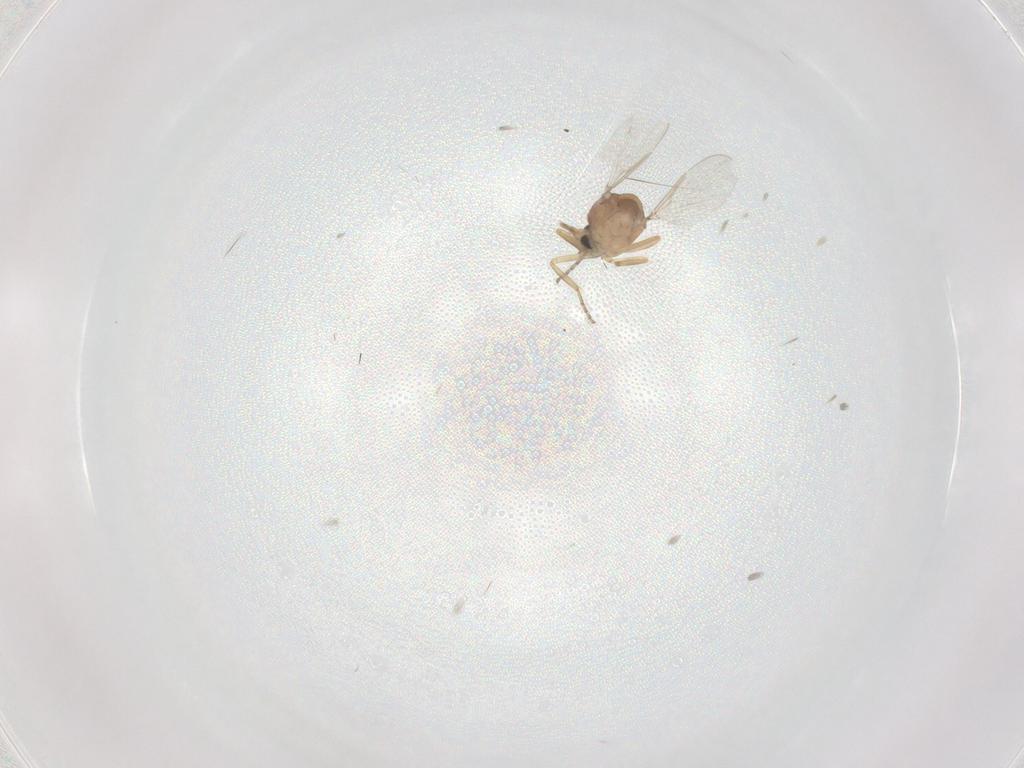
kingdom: Animalia
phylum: Arthropoda
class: Insecta
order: Diptera
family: Ceratopogonidae
